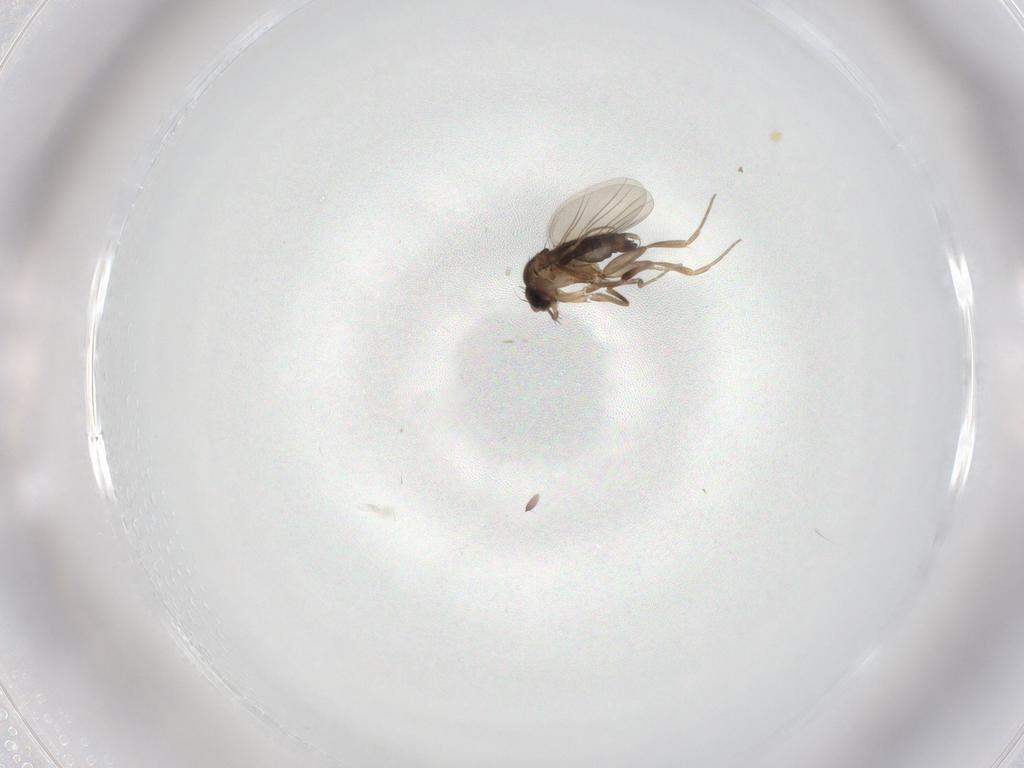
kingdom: Animalia
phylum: Arthropoda
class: Insecta
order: Diptera
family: Phoridae
